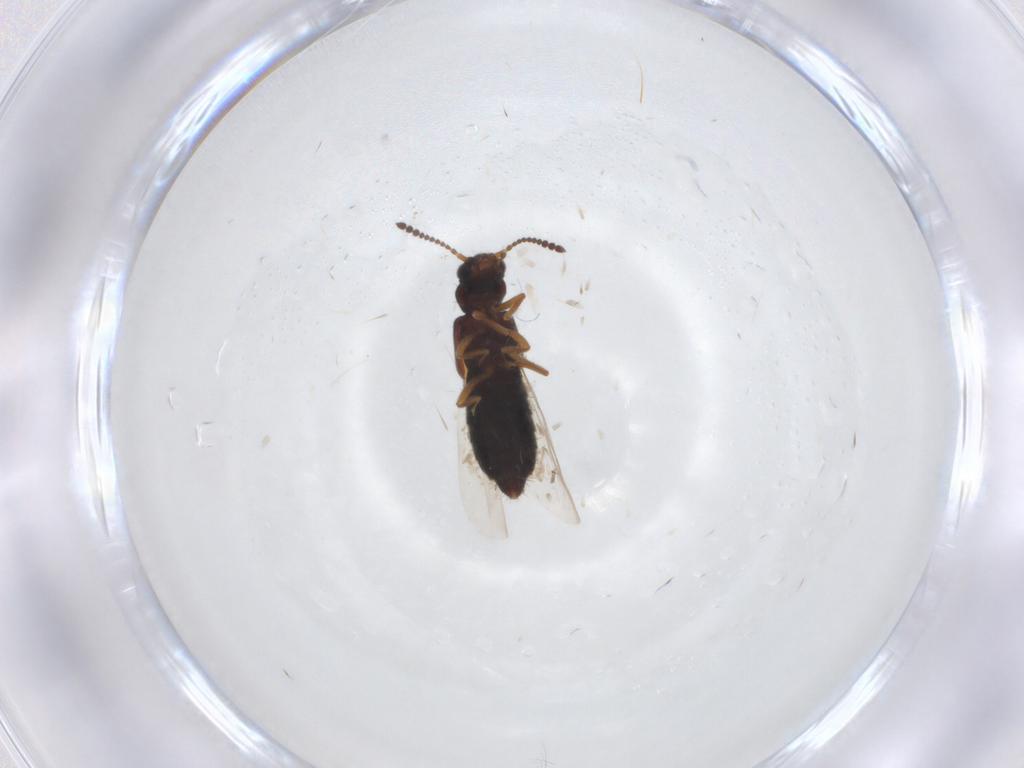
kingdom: Animalia
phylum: Arthropoda
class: Insecta
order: Coleoptera
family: Staphylinidae
